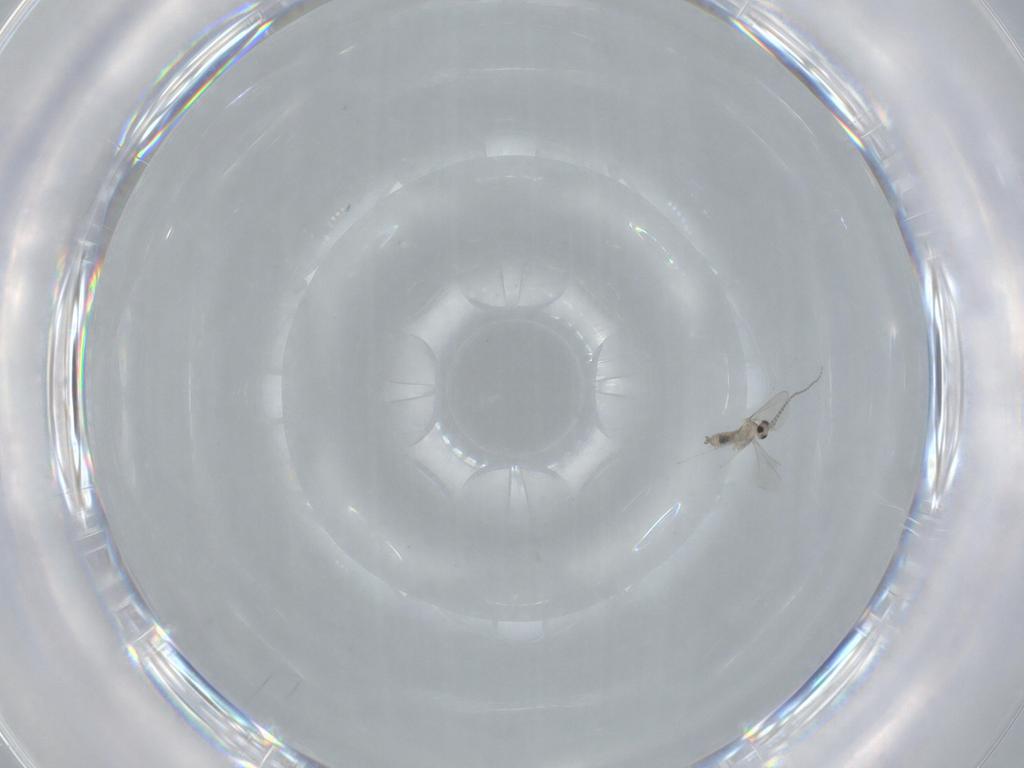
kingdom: Animalia
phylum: Arthropoda
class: Insecta
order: Diptera
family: Cecidomyiidae
